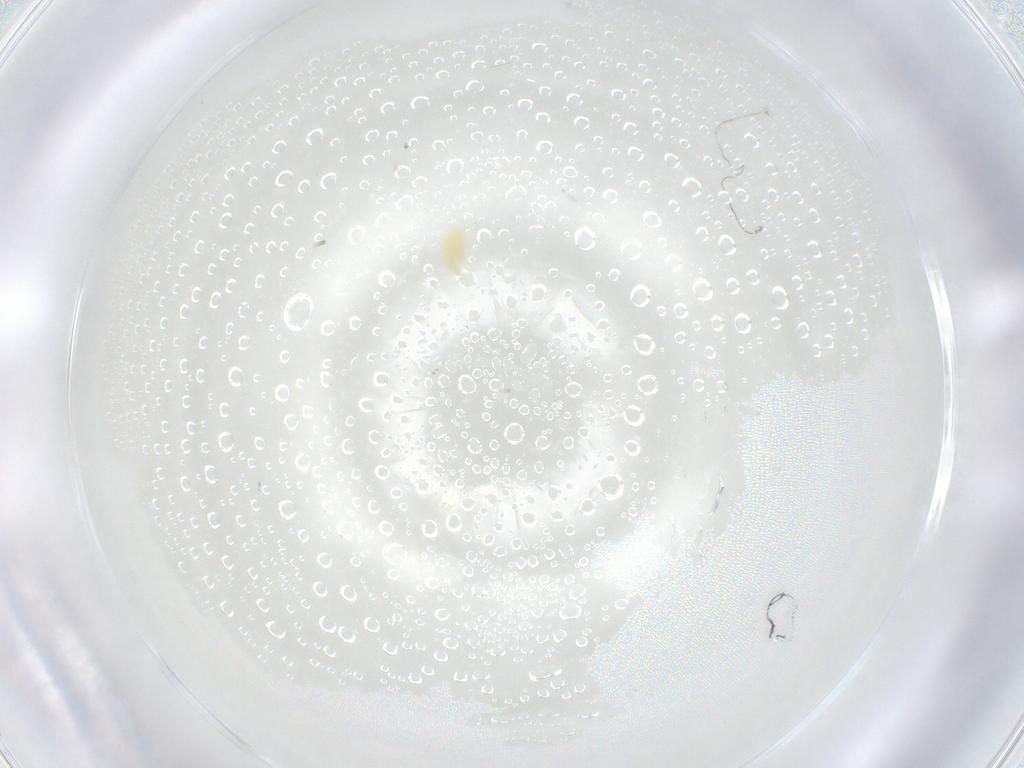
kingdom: Animalia
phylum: Arthropoda
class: Arachnida
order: Trombidiformes
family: Tetranychidae
